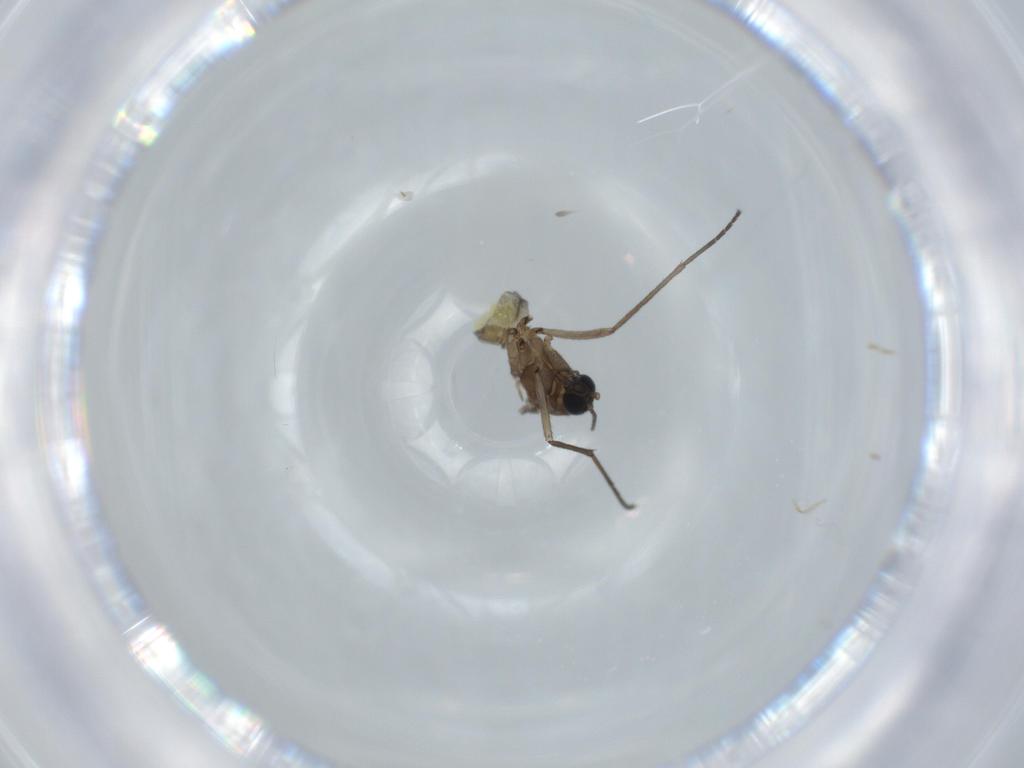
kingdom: Animalia
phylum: Arthropoda
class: Insecta
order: Diptera
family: Sciaridae
